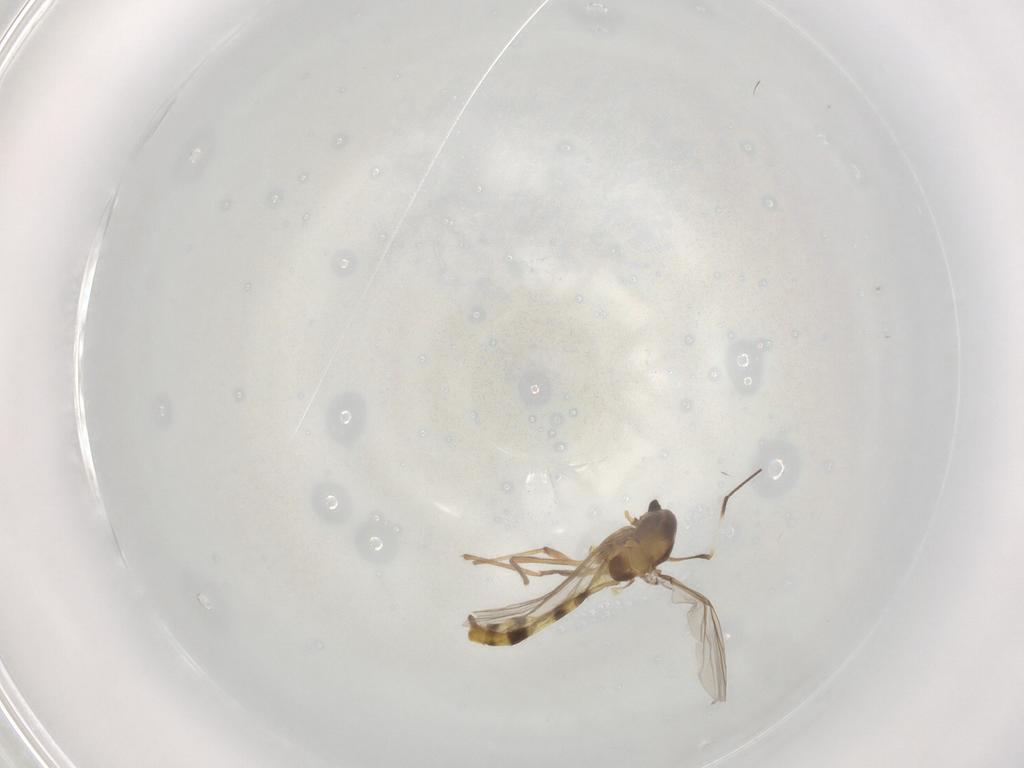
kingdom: Animalia
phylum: Arthropoda
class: Insecta
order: Diptera
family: Chironomidae
